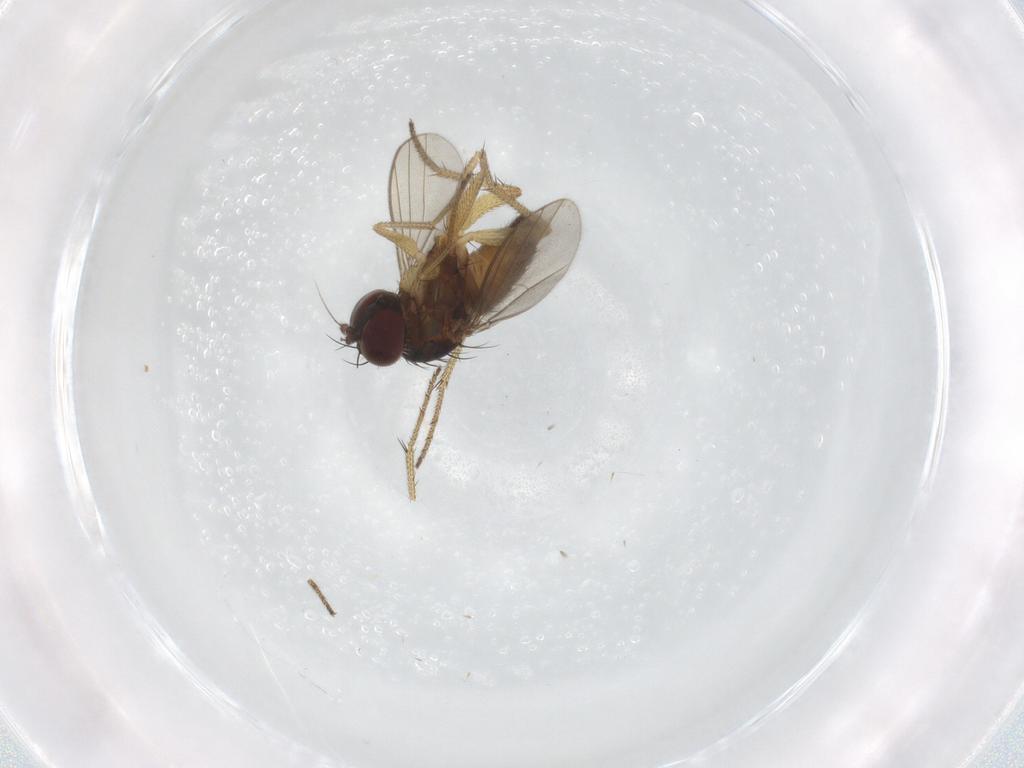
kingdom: Animalia
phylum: Arthropoda
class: Insecta
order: Diptera
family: Dolichopodidae
